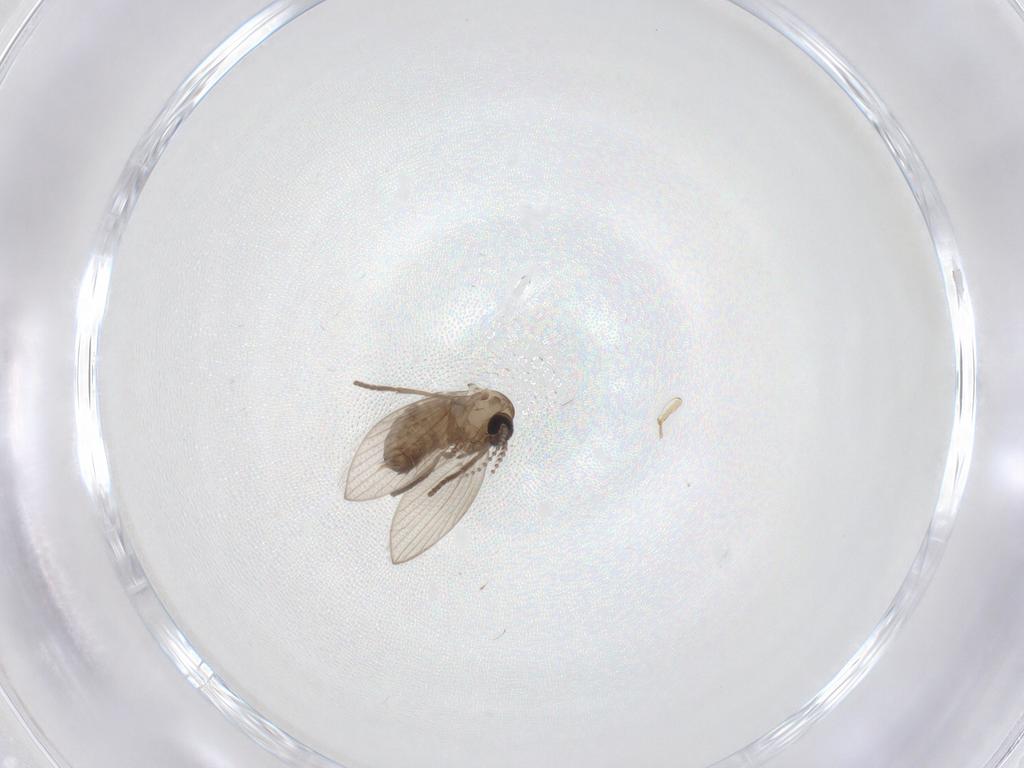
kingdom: Animalia
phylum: Arthropoda
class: Insecta
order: Diptera
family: Psychodidae
